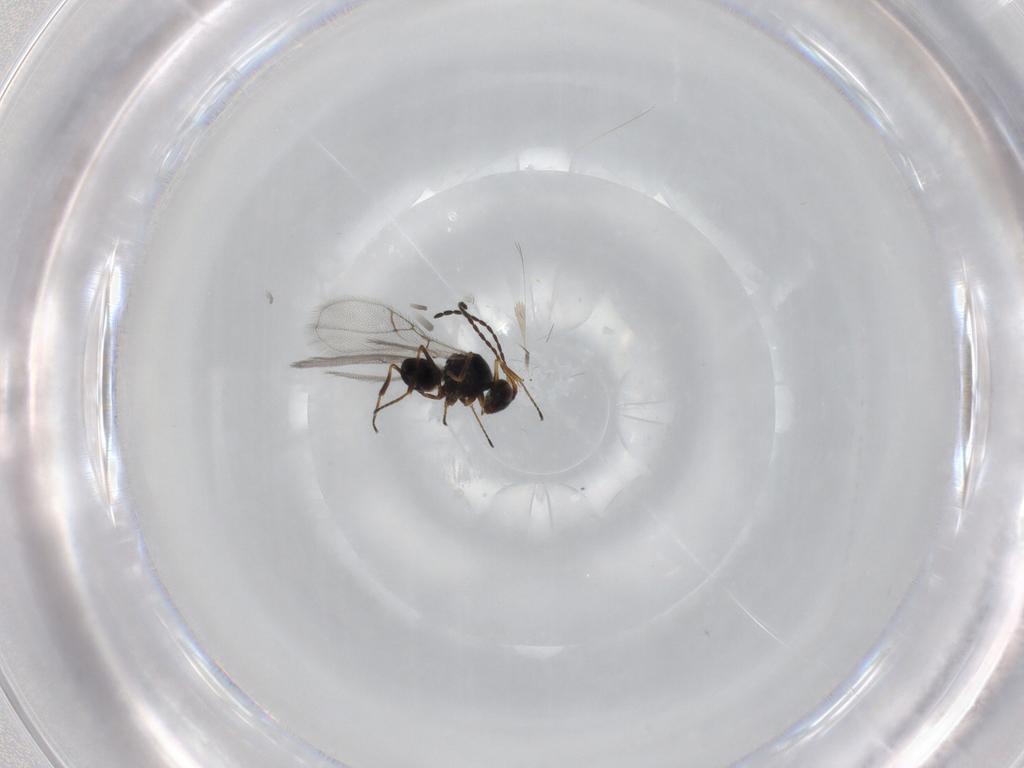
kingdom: Animalia
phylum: Arthropoda
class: Insecta
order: Hymenoptera
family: Figitidae
